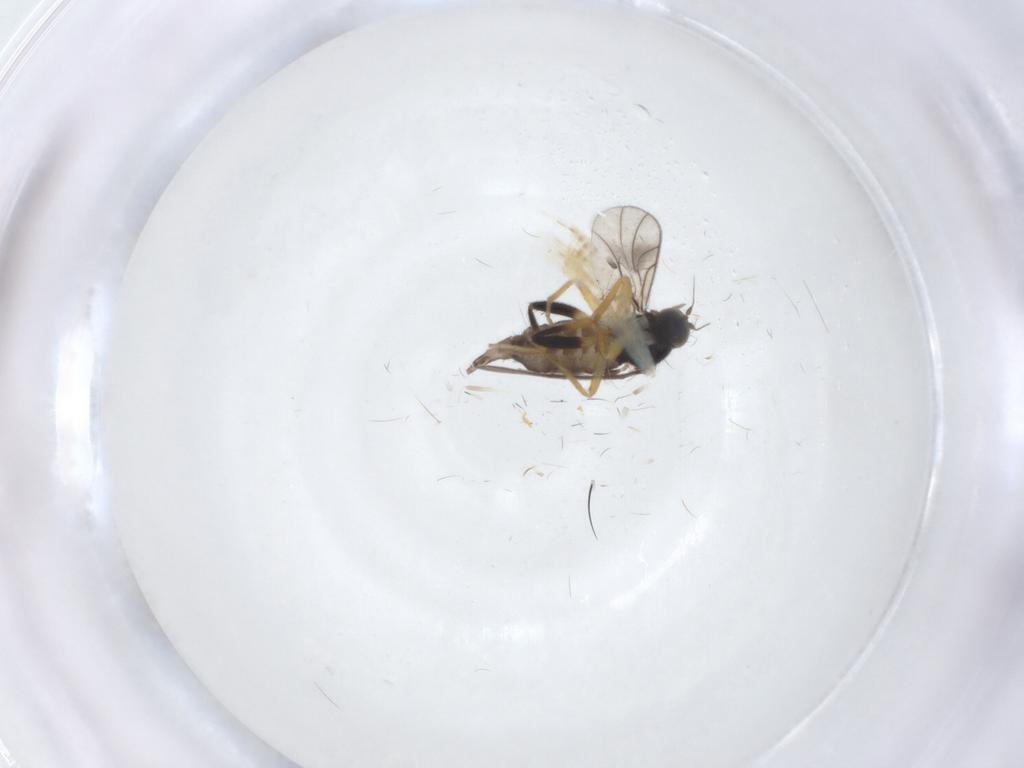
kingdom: Animalia
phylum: Arthropoda
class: Insecta
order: Diptera
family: Hybotidae
